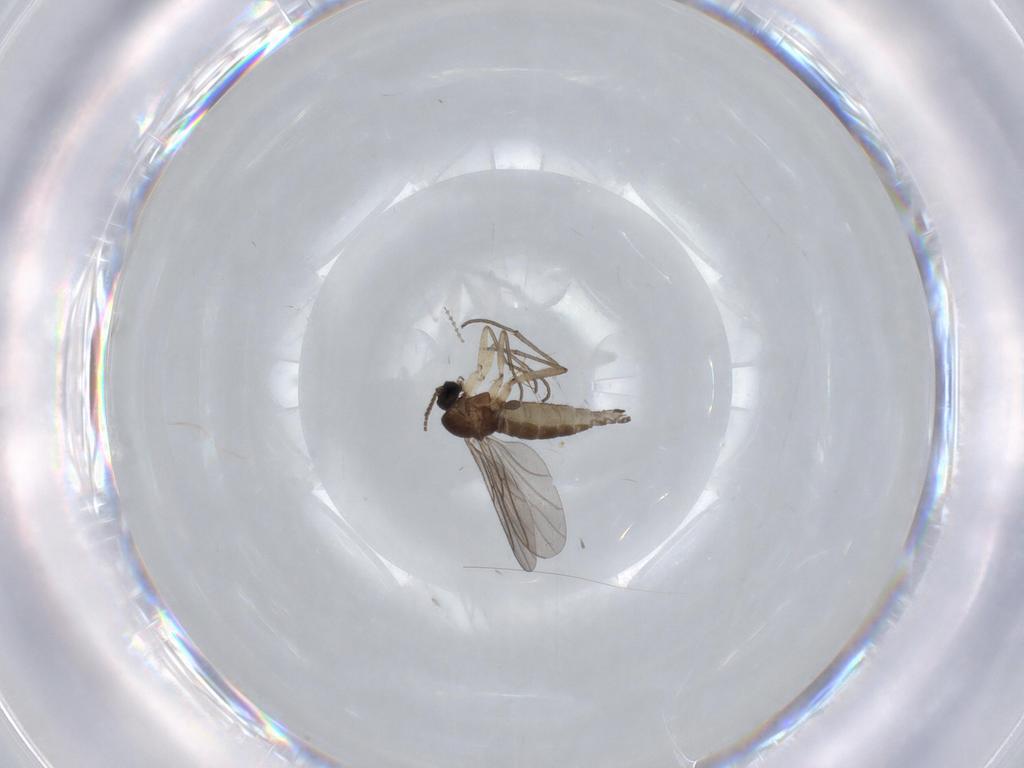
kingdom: Animalia
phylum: Arthropoda
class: Insecta
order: Diptera
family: Sciaridae
